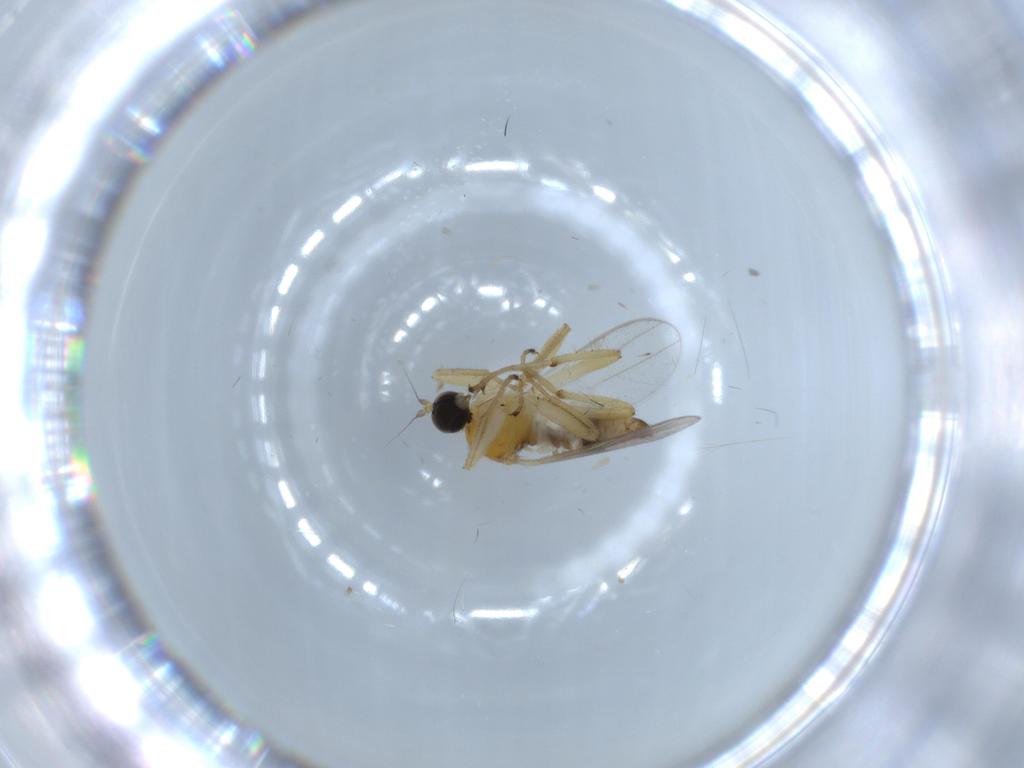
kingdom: Animalia
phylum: Arthropoda
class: Insecta
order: Diptera
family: Hybotidae
